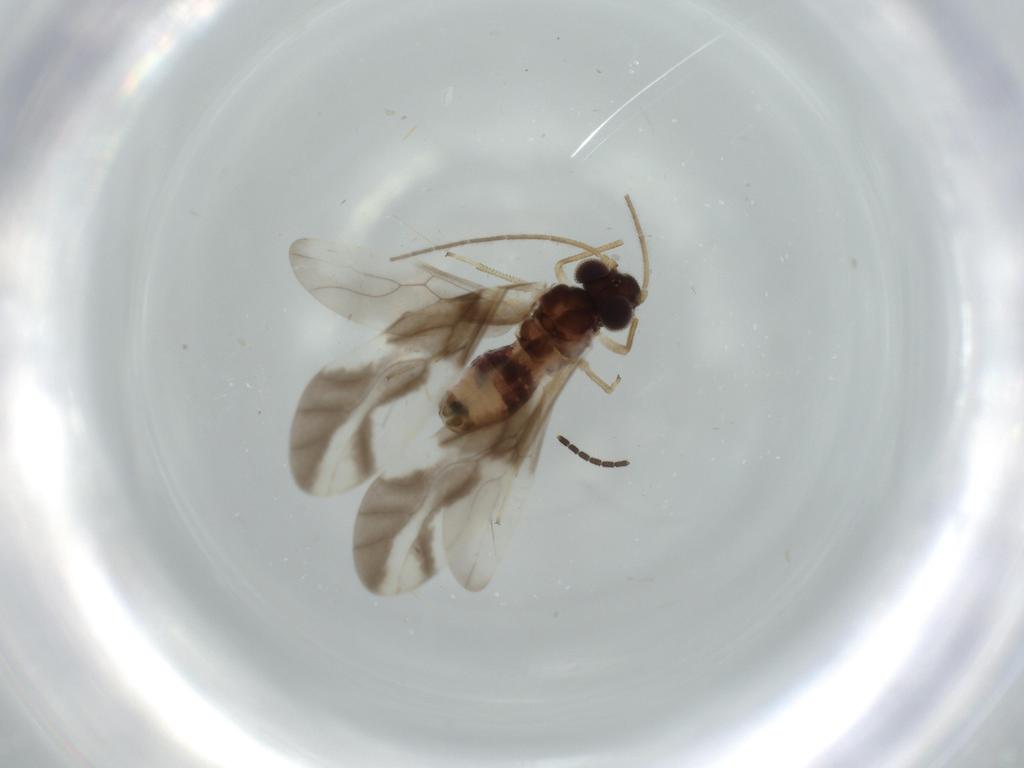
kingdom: Animalia
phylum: Arthropoda
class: Insecta
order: Psocodea
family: Caeciliusidae
